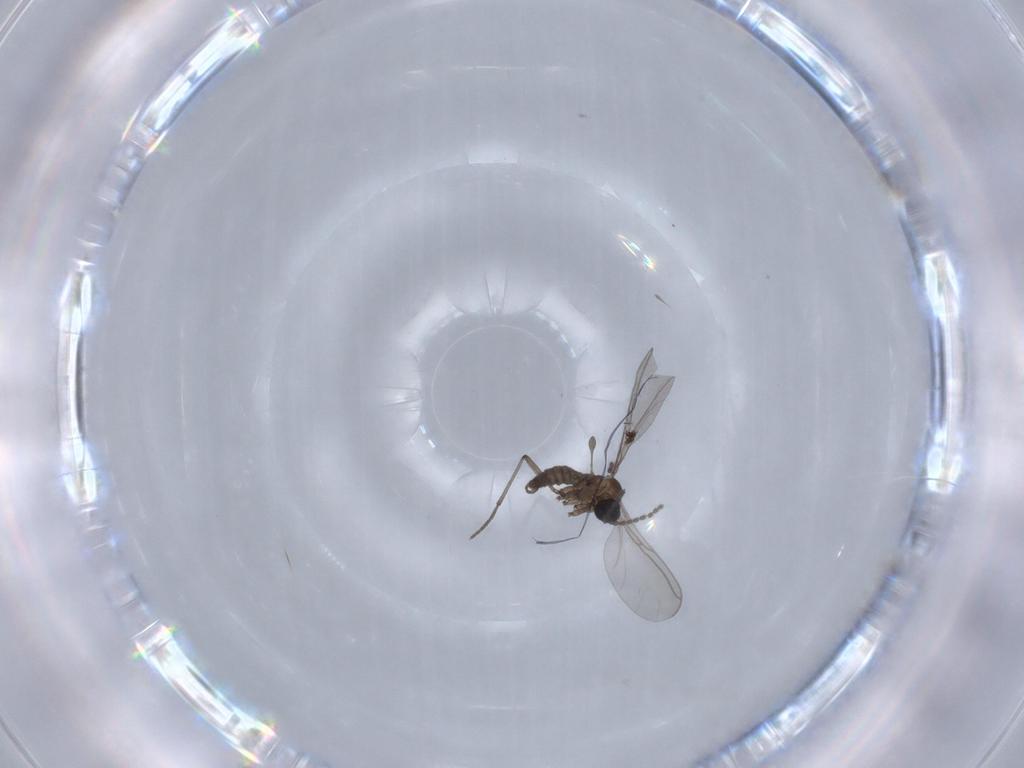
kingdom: Animalia
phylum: Arthropoda
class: Insecta
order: Diptera
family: Sciaridae
